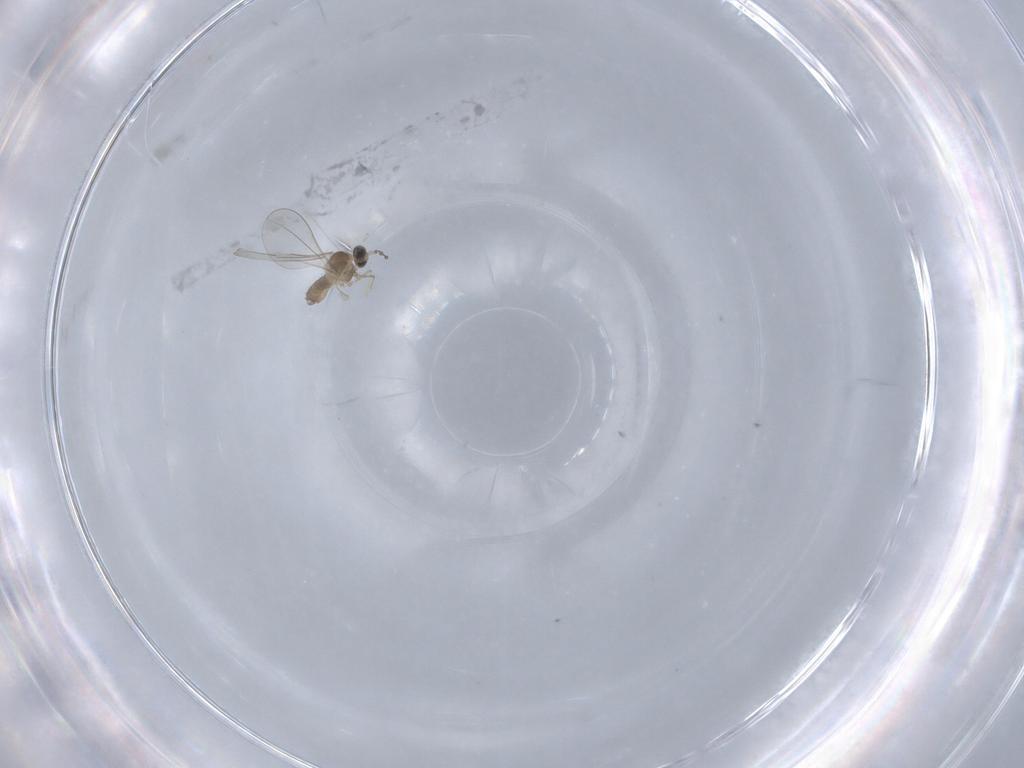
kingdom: Animalia
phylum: Arthropoda
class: Insecta
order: Diptera
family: Cecidomyiidae
